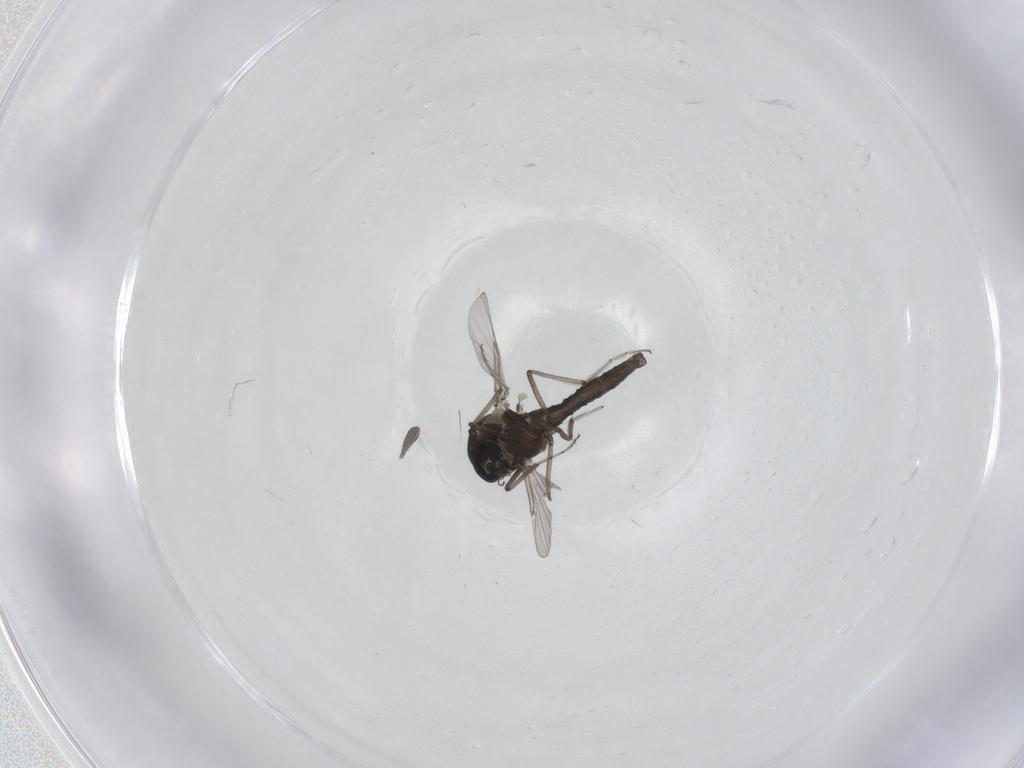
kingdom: Animalia
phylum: Arthropoda
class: Insecta
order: Diptera
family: Ceratopogonidae
